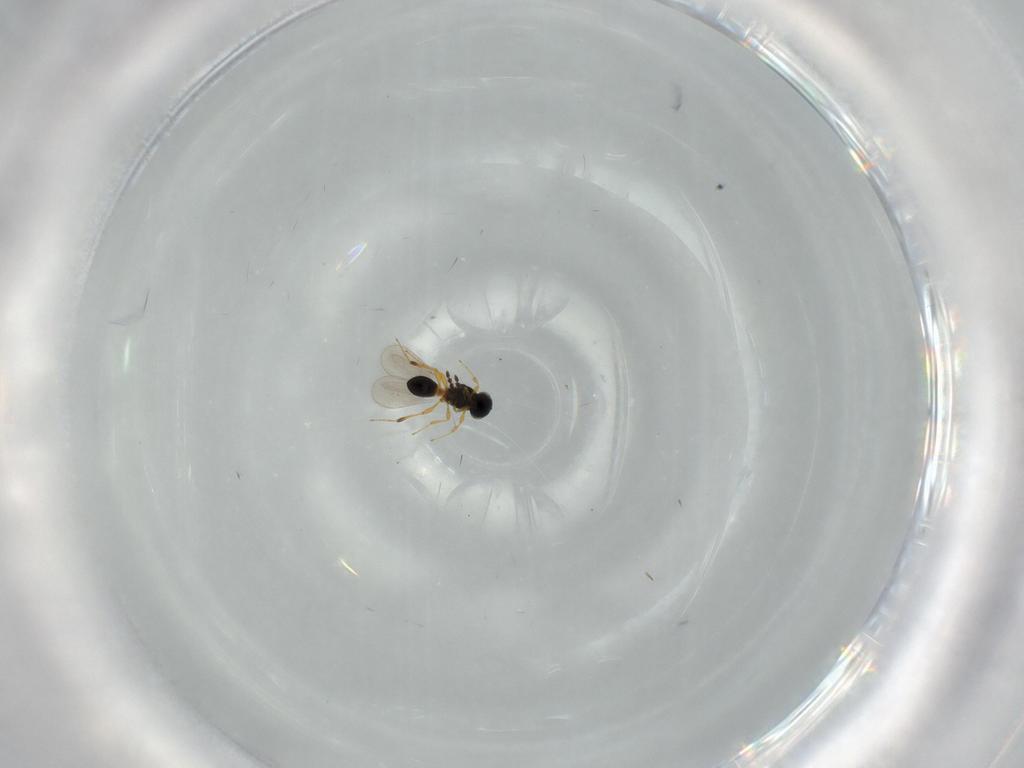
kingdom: Animalia
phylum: Arthropoda
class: Insecta
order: Hymenoptera
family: Platygastridae
